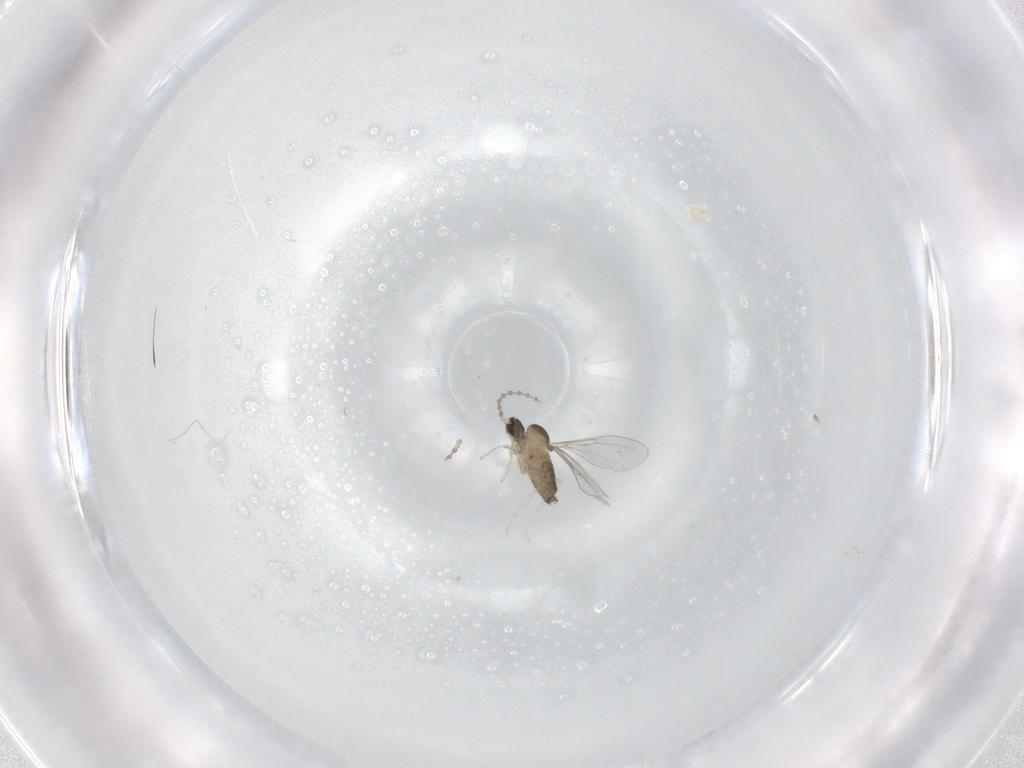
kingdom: Animalia
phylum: Arthropoda
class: Insecta
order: Diptera
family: Cecidomyiidae
